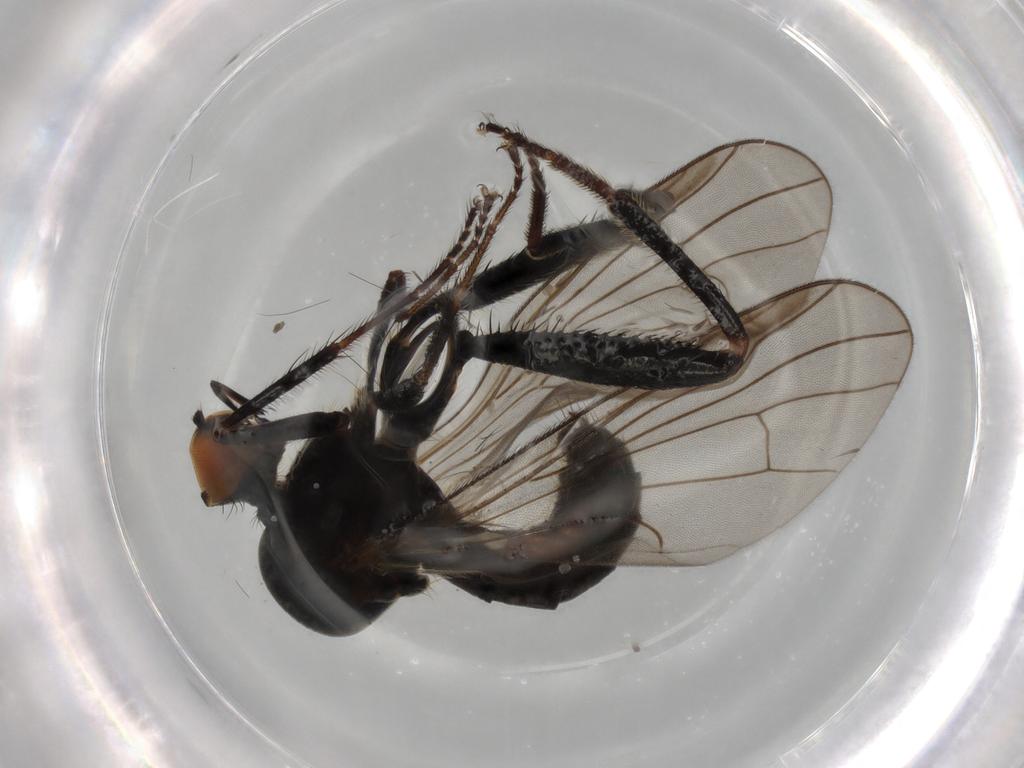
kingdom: Animalia
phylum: Arthropoda
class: Insecta
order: Diptera
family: Hybotidae
